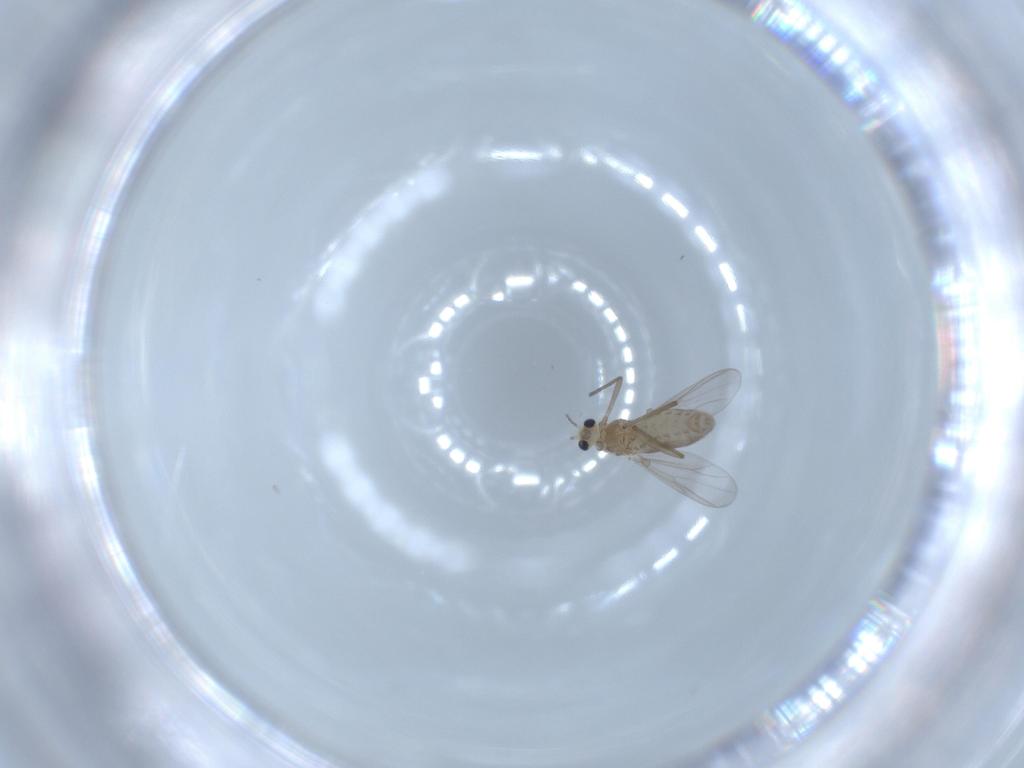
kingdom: Animalia
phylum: Arthropoda
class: Insecta
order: Diptera
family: Chironomidae
